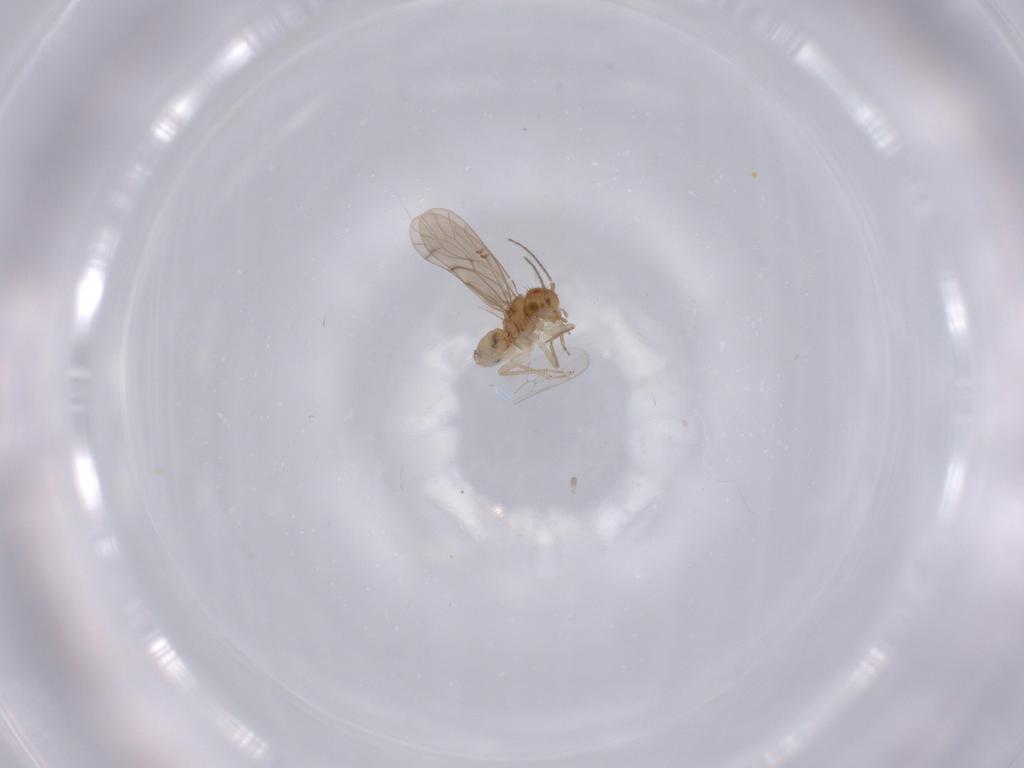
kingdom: Animalia
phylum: Arthropoda
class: Insecta
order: Psocodea
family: Ectopsocidae
